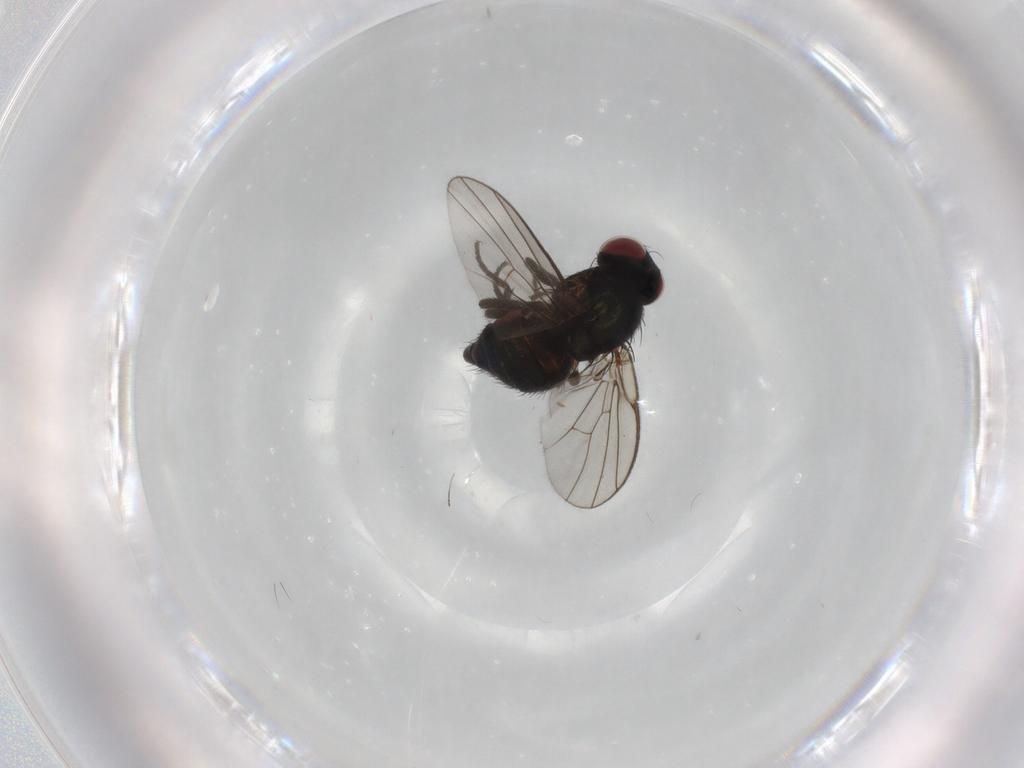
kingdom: Animalia
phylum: Arthropoda
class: Insecta
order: Diptera
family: Agromyzidae
